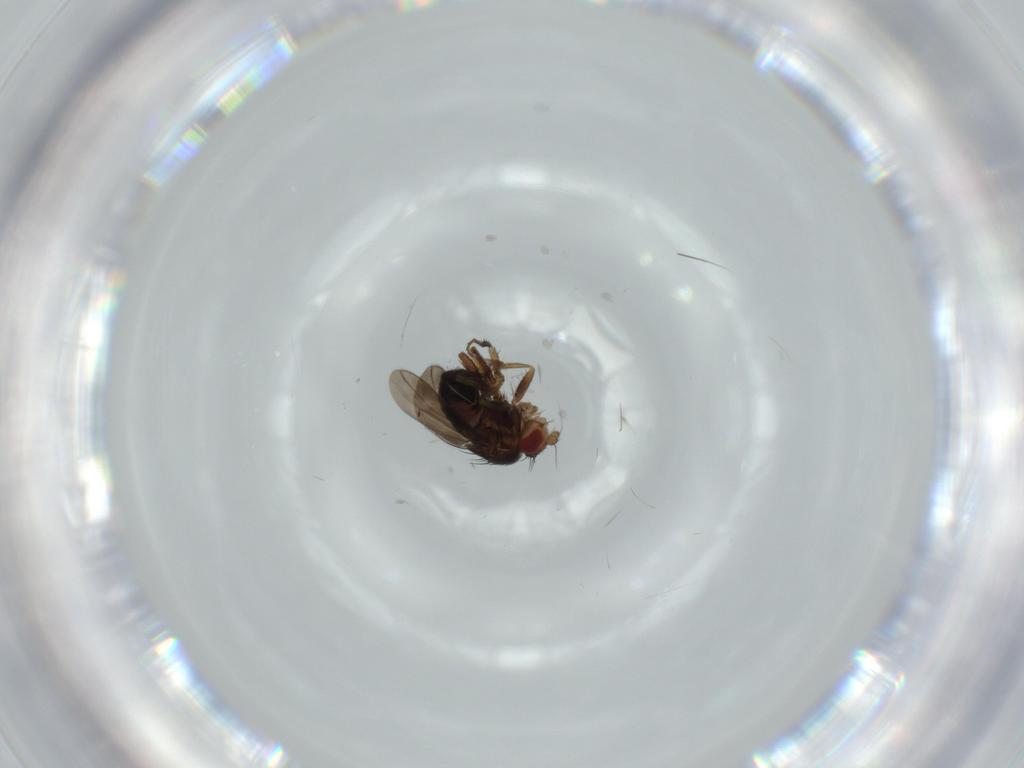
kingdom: Animalia
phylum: Arthropoda
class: Insecta
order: Diptera
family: Sphaeroceridae
